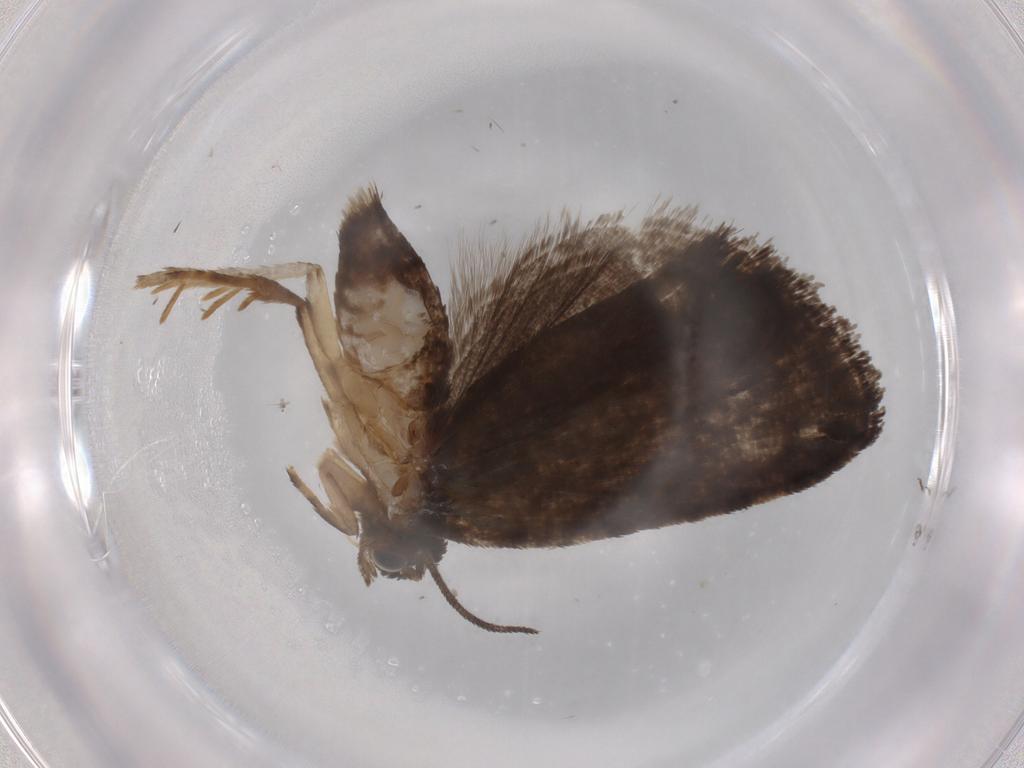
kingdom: Animalia
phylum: Arthropoda
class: Insecta
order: Lepidoptera
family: Tortricidae
